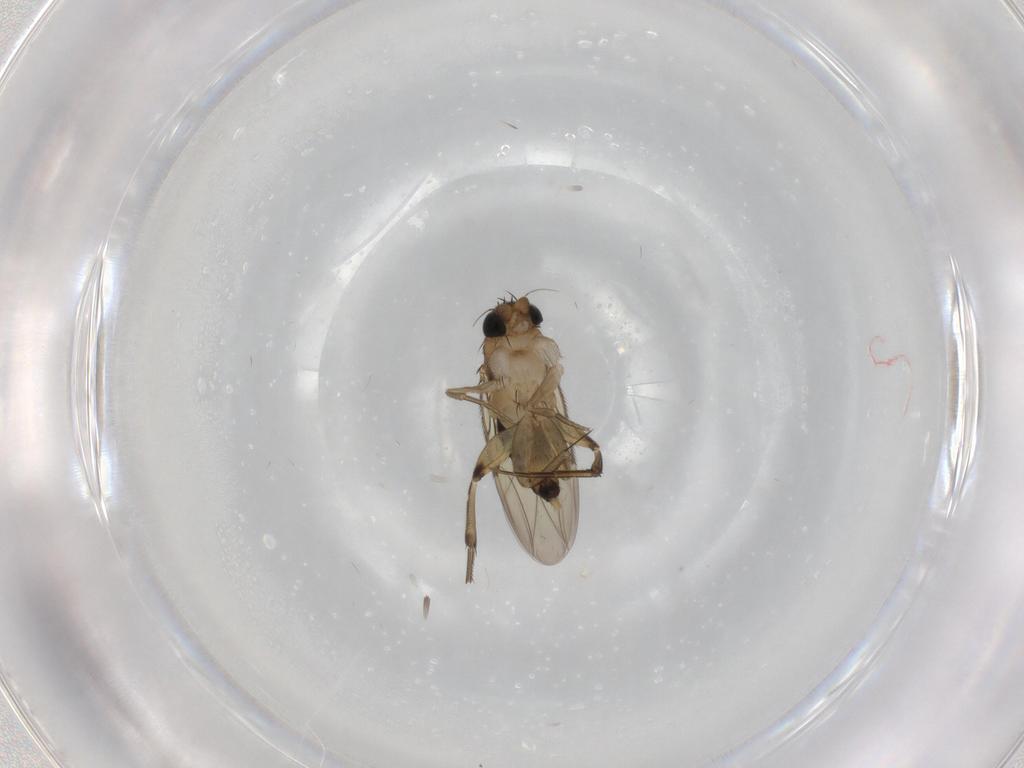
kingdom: Animalia
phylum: Arthropoda
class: Insecta
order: Diptera
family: Phoridae
